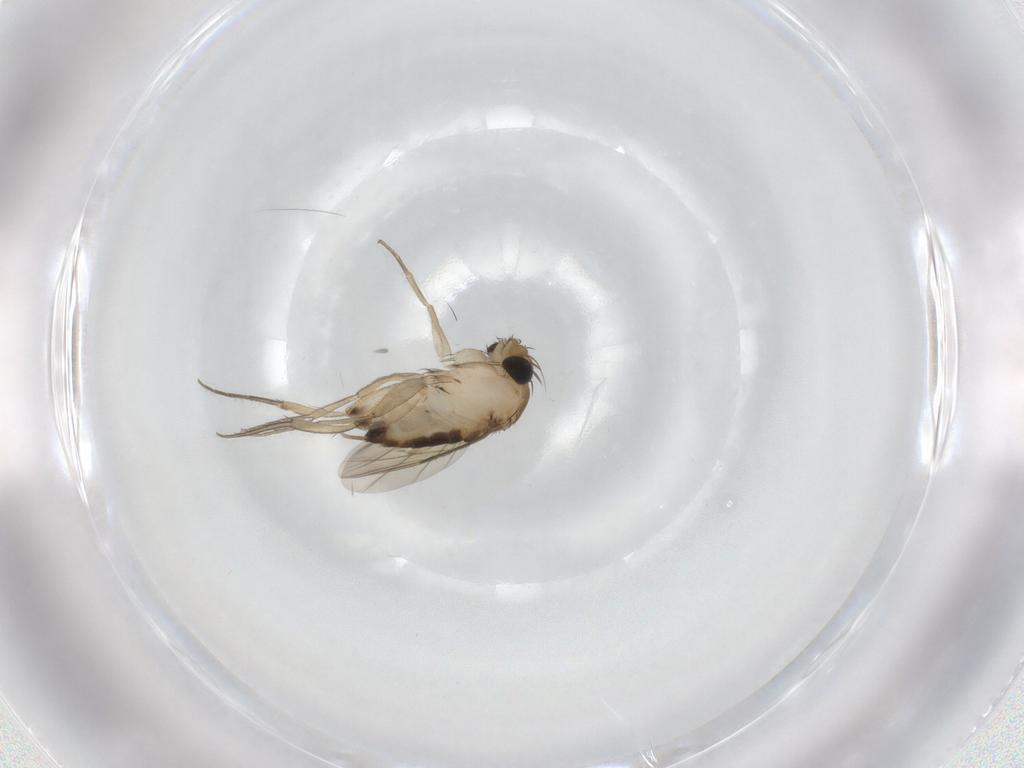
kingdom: Animalia
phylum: Arthropoda
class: Insecta
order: Diptera
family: Phoridae
